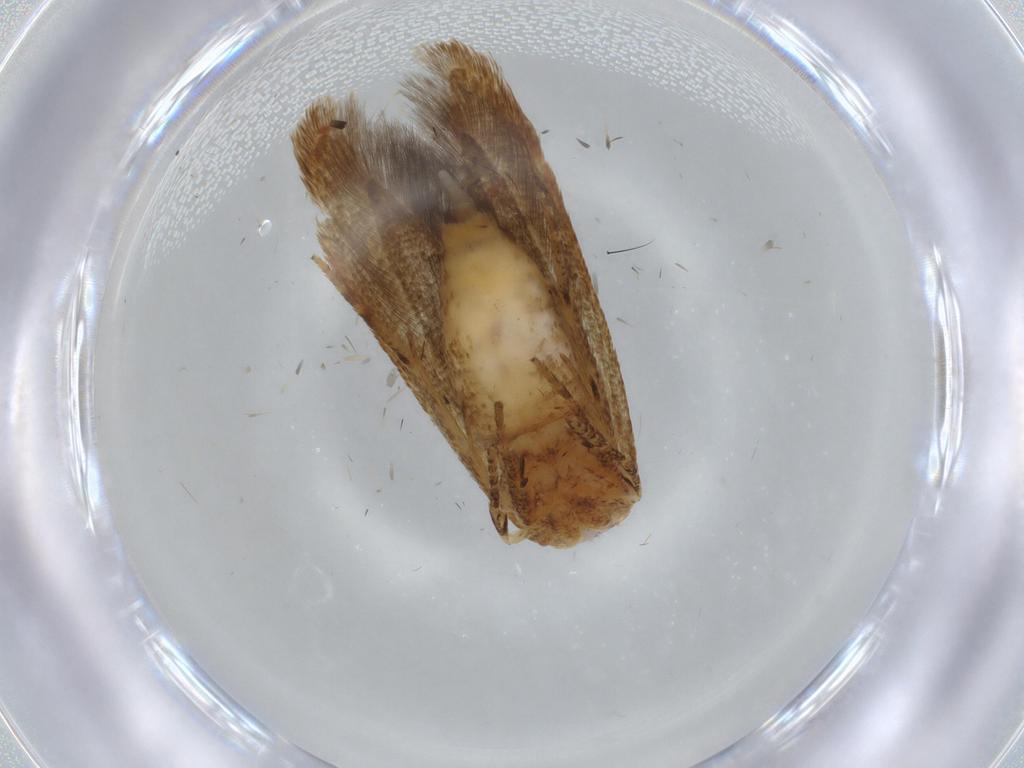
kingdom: Animalia
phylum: Arthropoda
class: Insecta
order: Lepidoptera
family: Coleophoridae
